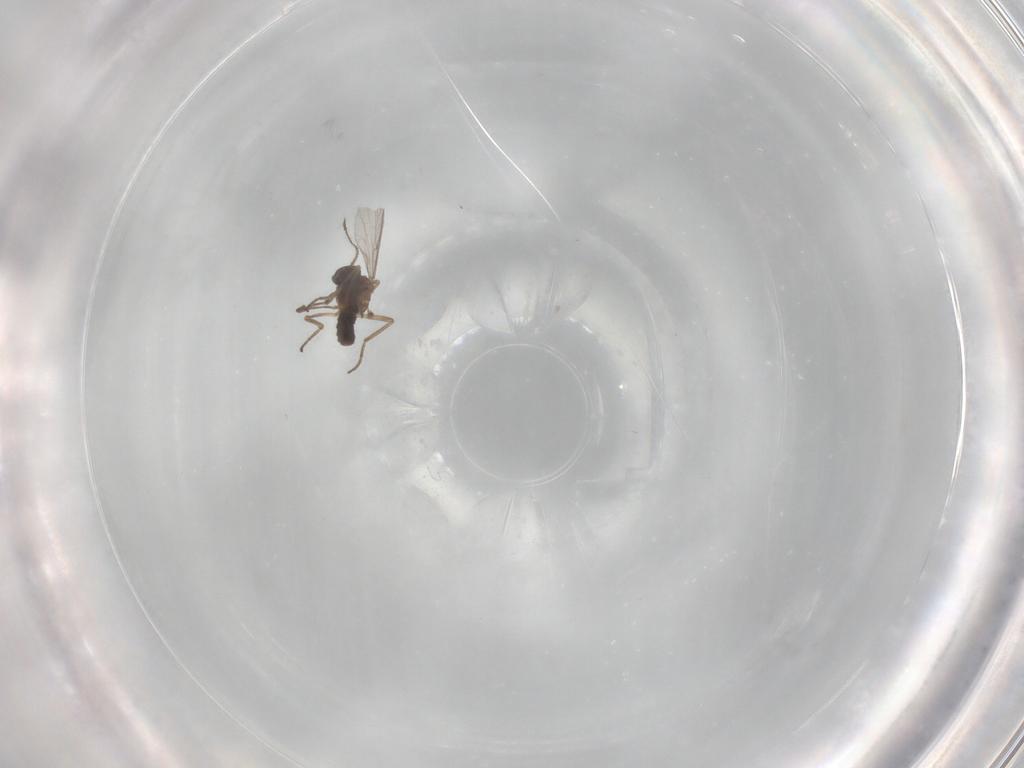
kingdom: Animalia
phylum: Arthropoda
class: Insecta
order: Diptera
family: Ceratopogonidae
